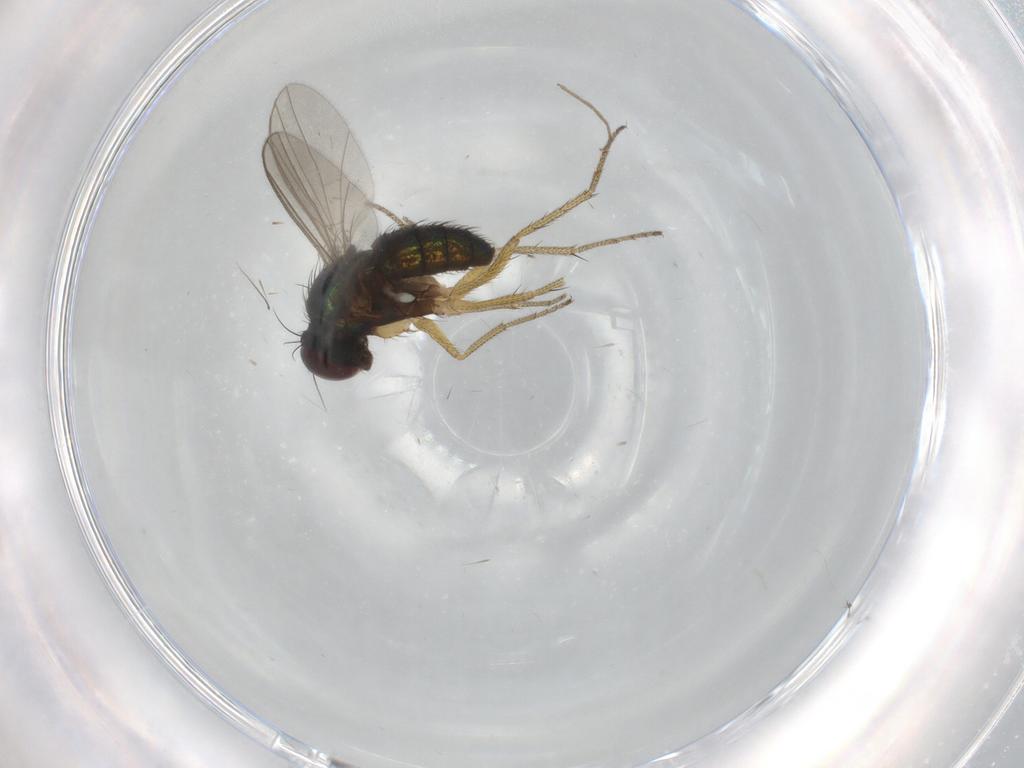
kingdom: Animalia
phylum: Arthropoda
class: Insecta
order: Diptera
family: Dolichopodidae
